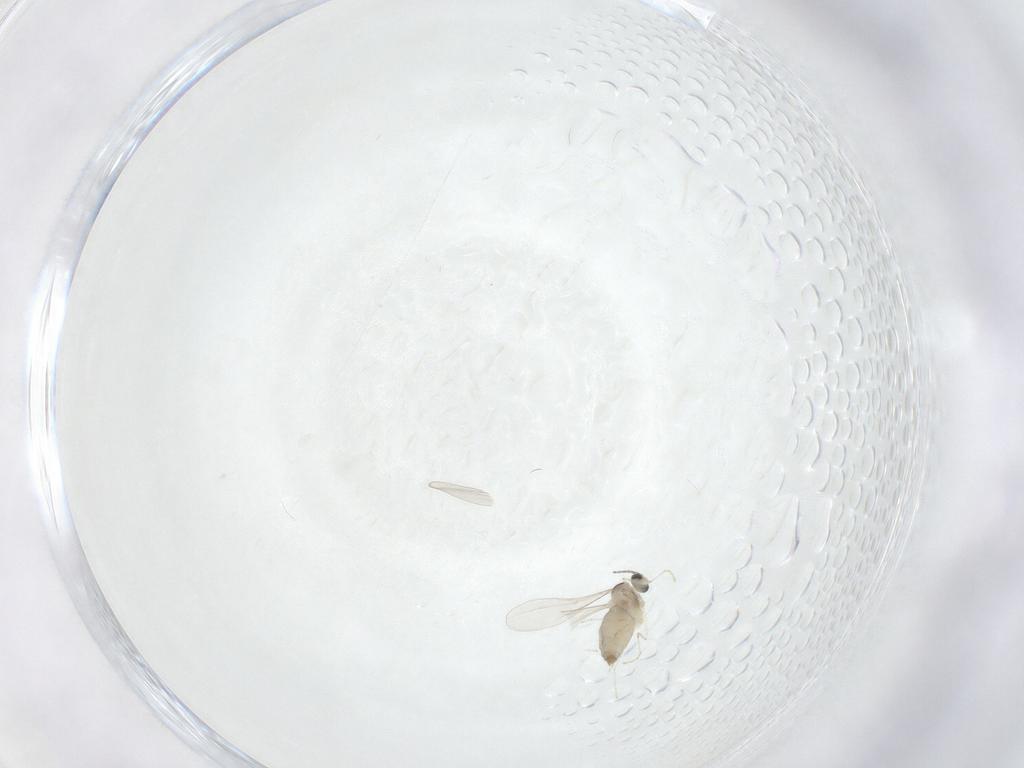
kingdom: Animalia
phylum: Arthropoda
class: Insecta
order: Diptera
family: Cecidomyiidae
